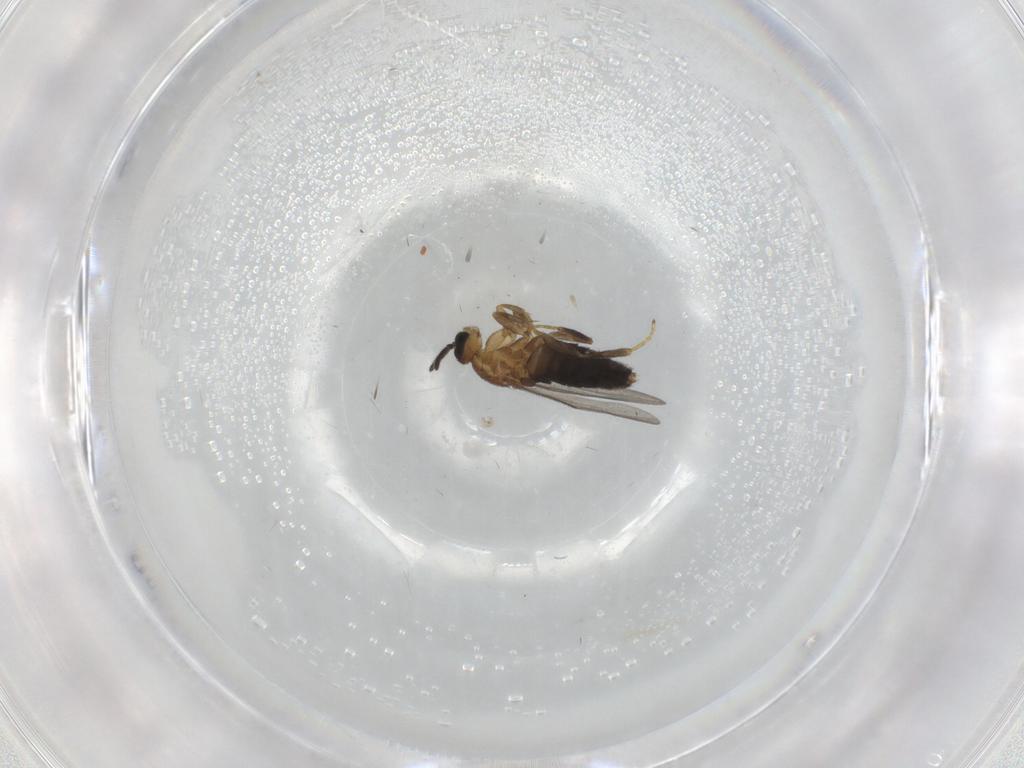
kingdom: Animalia
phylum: Arthropoda
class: Insecta
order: Diptera
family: Scatopsidae
